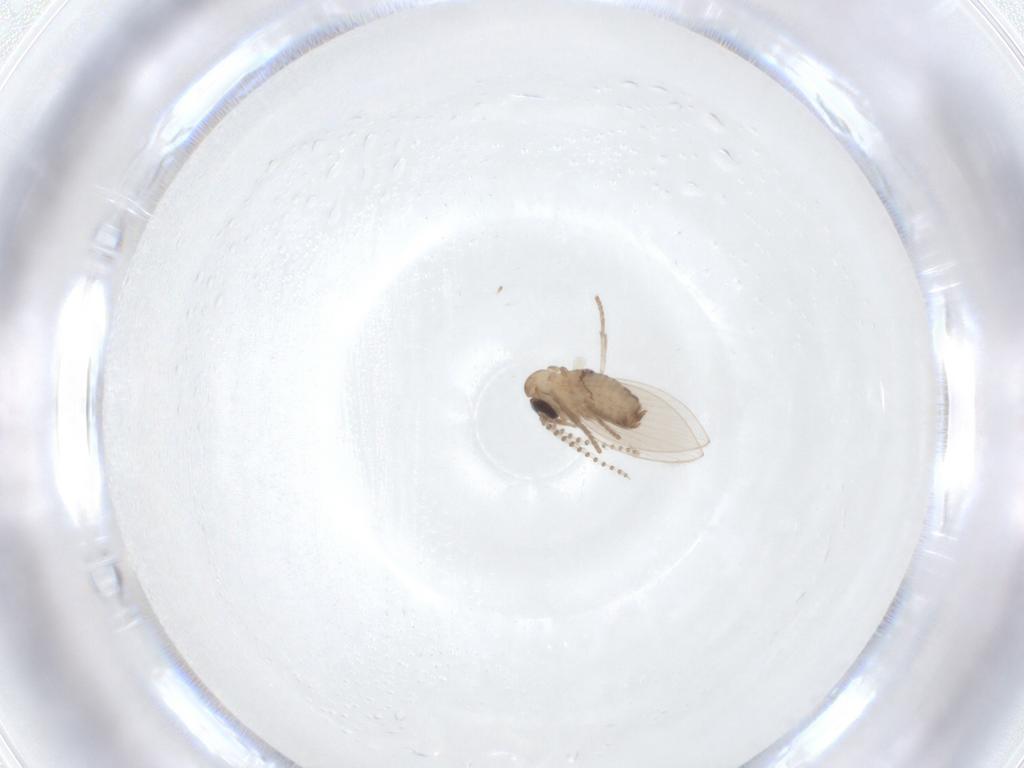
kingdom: Animalia
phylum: Arthropoda
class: Insecta
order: Diptera
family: Psychodidae
